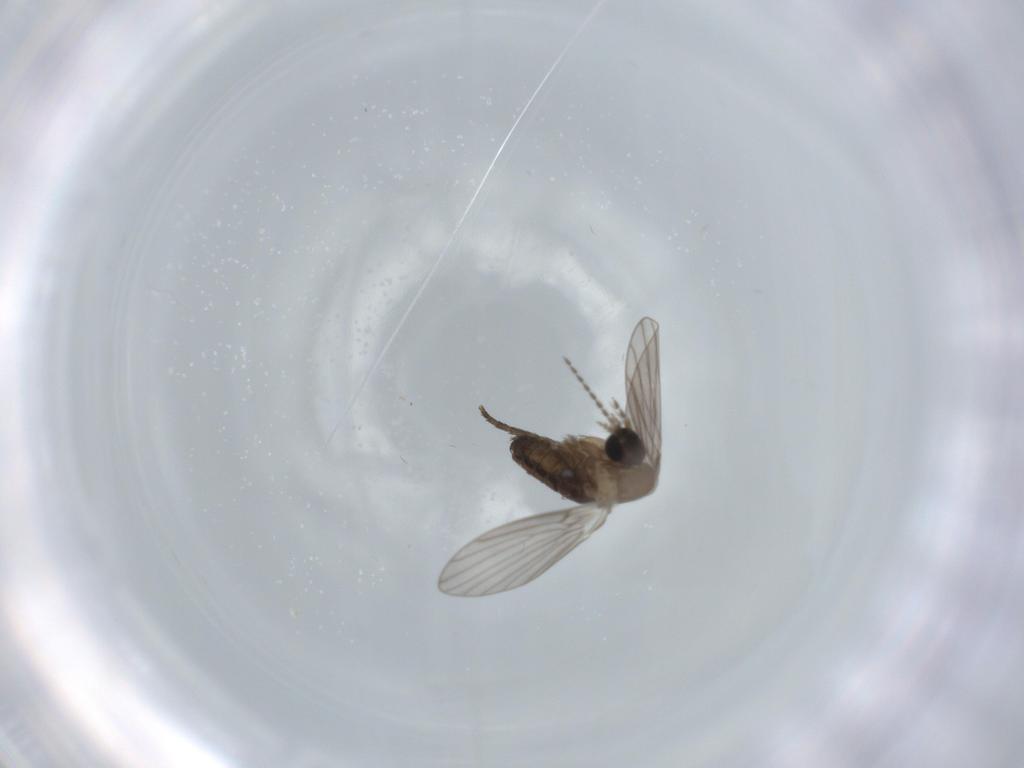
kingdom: Animalia
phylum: Arthropoda
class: Insecta
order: Diptera
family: Psychodidae
